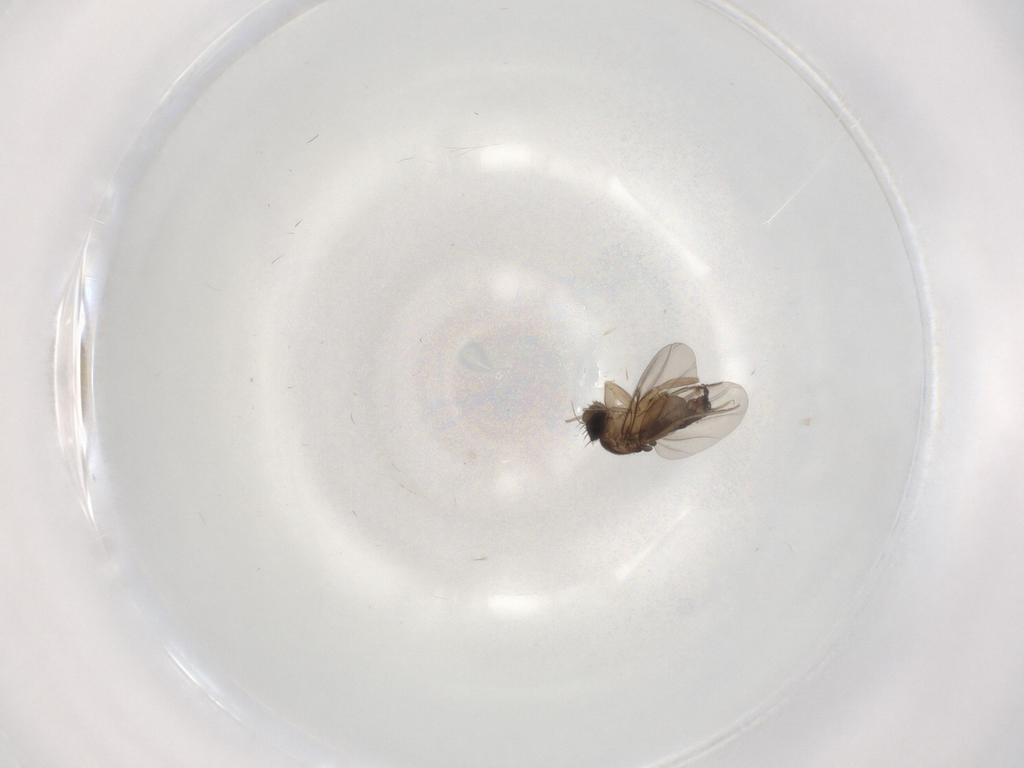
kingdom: Animalia
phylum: Arthropoda
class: Insecta
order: Diptera
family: Phoridae
